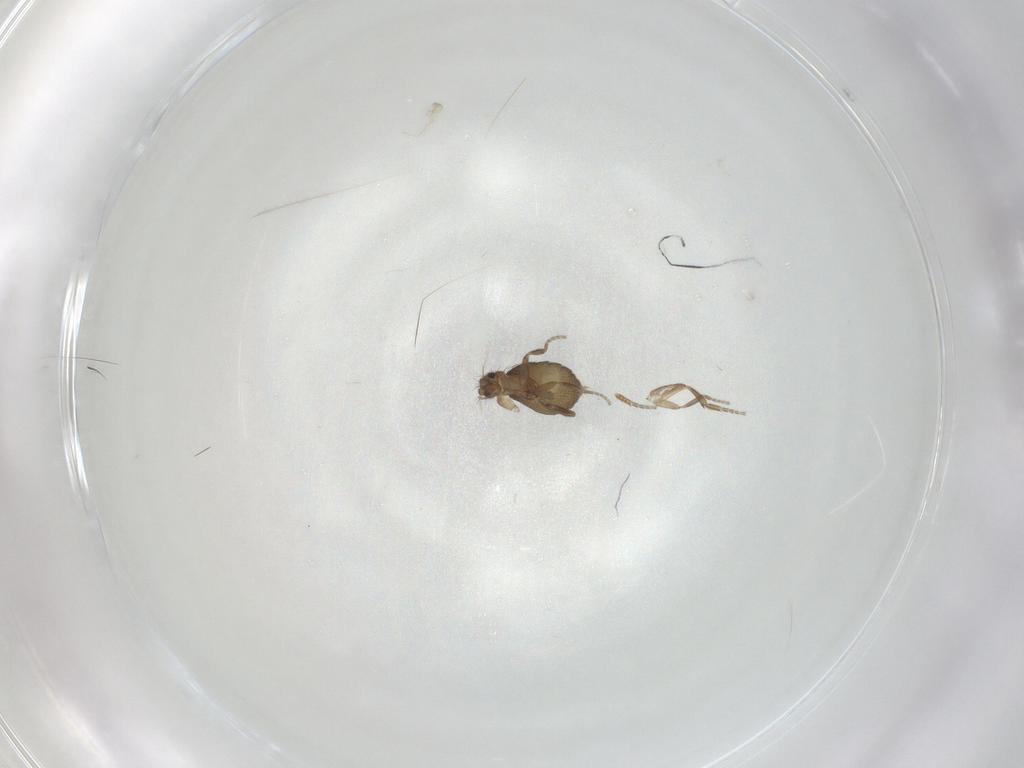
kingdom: Animalia
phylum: Arthropoda
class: Insecta
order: Diptera
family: Phoridae
